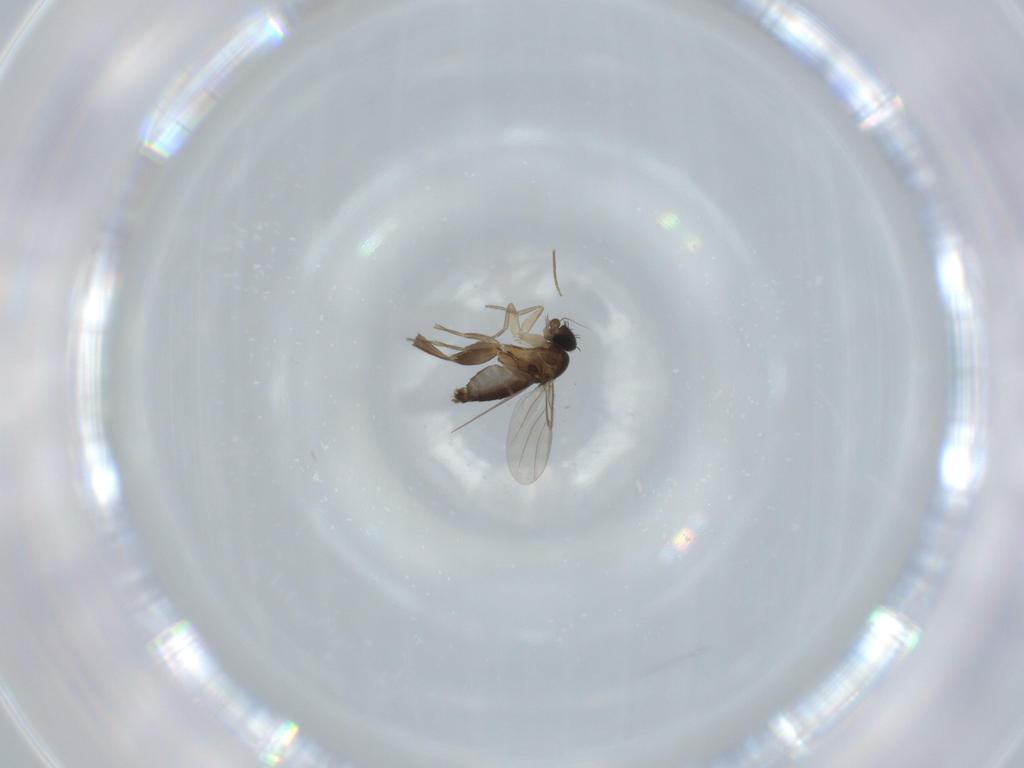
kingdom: Animalia
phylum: Arthropoda
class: Insecta
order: Diptera
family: Phoridae
